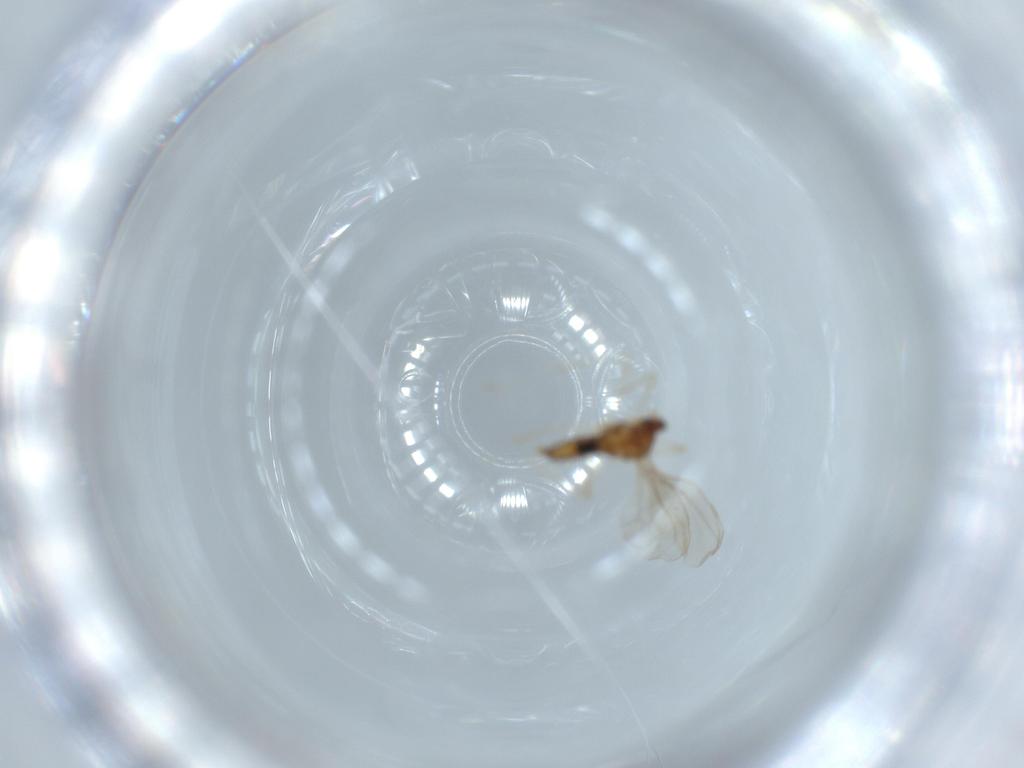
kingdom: Animalia
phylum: Arthropoda
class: Insecta
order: Diptera
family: Cecidomyiidae
